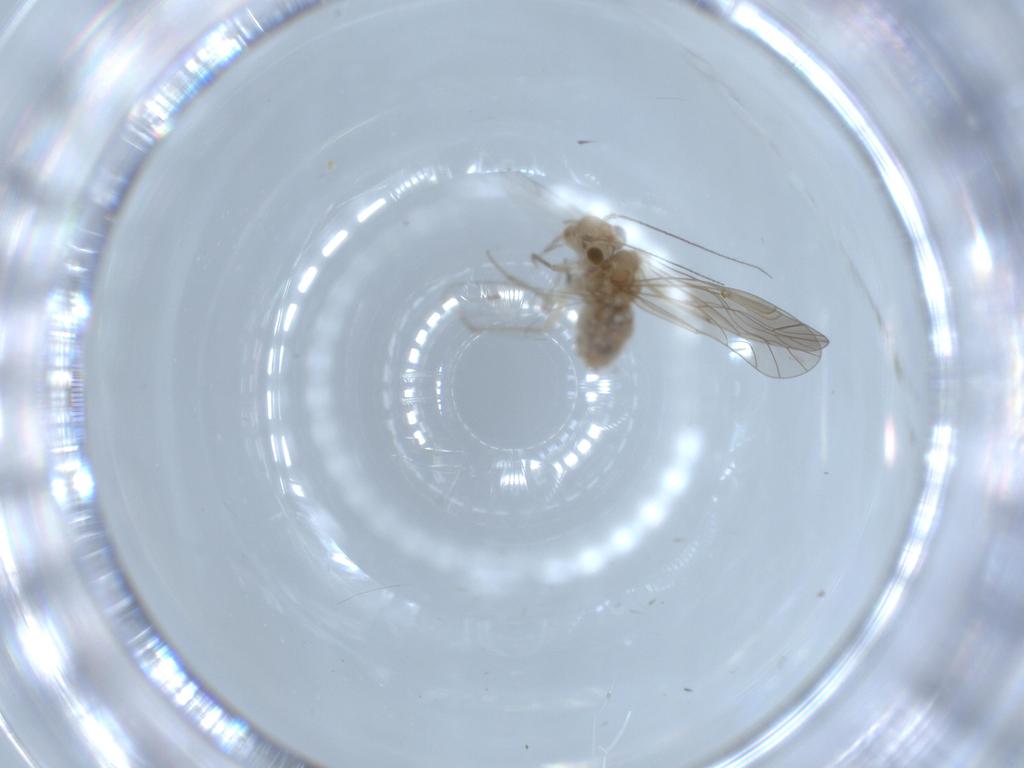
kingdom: Animalia
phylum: Arthropoda
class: Insecta
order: Psocodea
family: Lachesillidae
